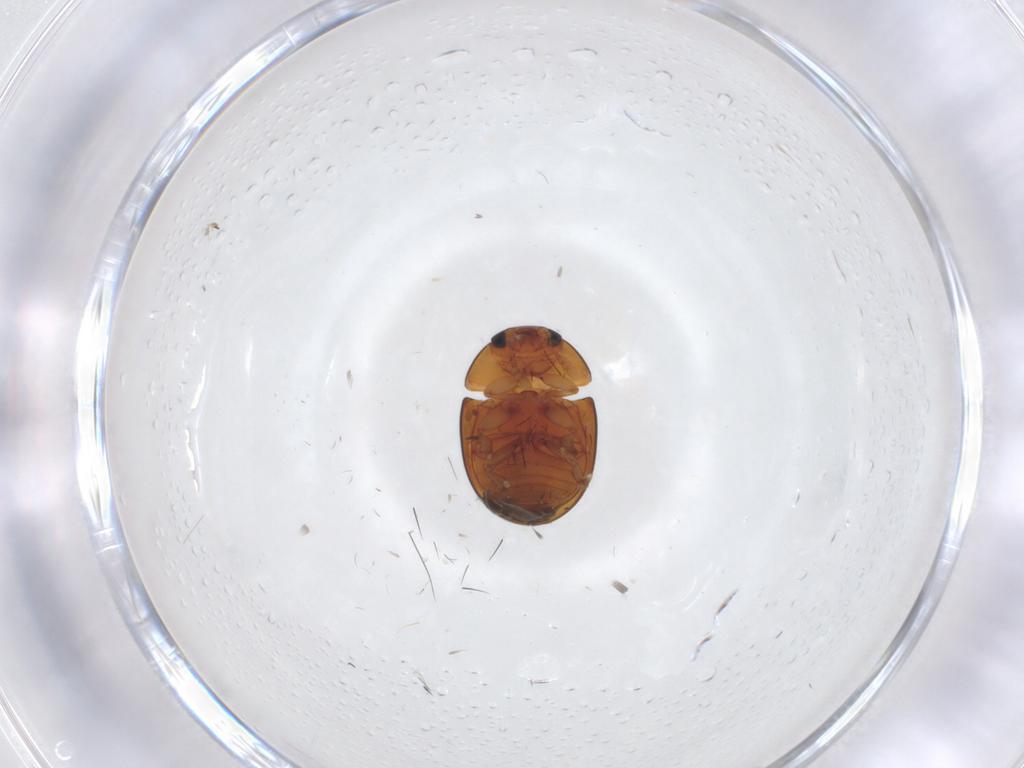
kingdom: Animalia
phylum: Arthropoda
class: Insecta
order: Coleoptera
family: Phalacridae
